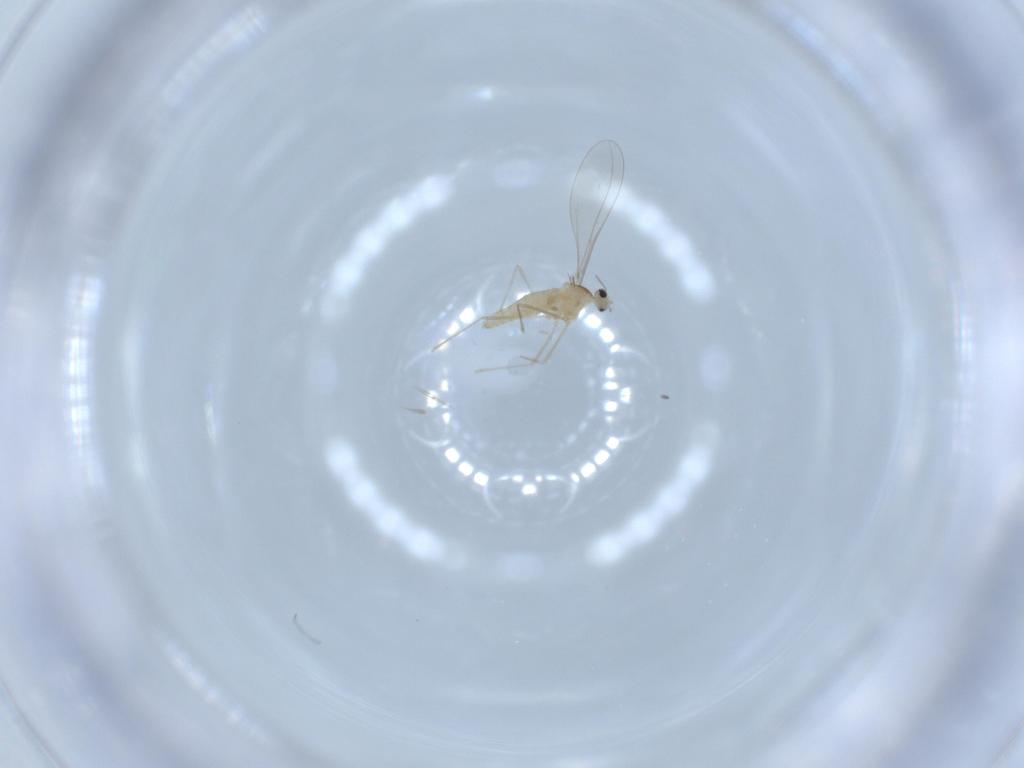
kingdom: Animalia
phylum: Arthropoda
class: Insecta
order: Diptera
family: Cecidomyiidae
